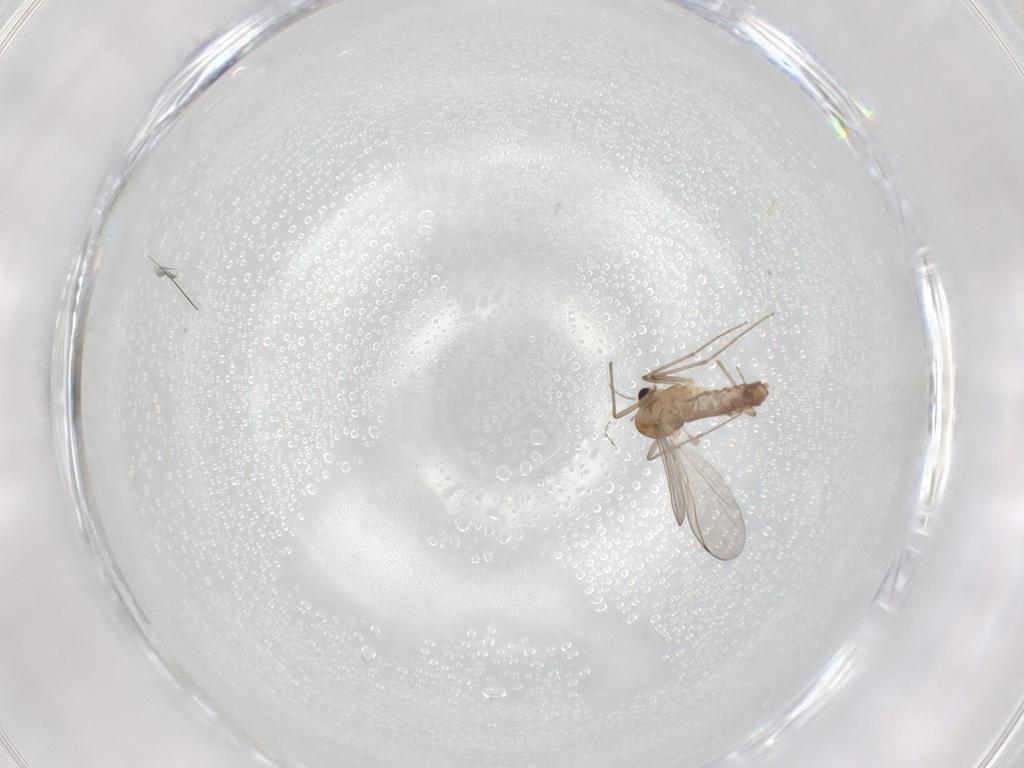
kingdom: Animalia
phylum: Arthropoda
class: Insecta
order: Diptera
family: Chironomidae
